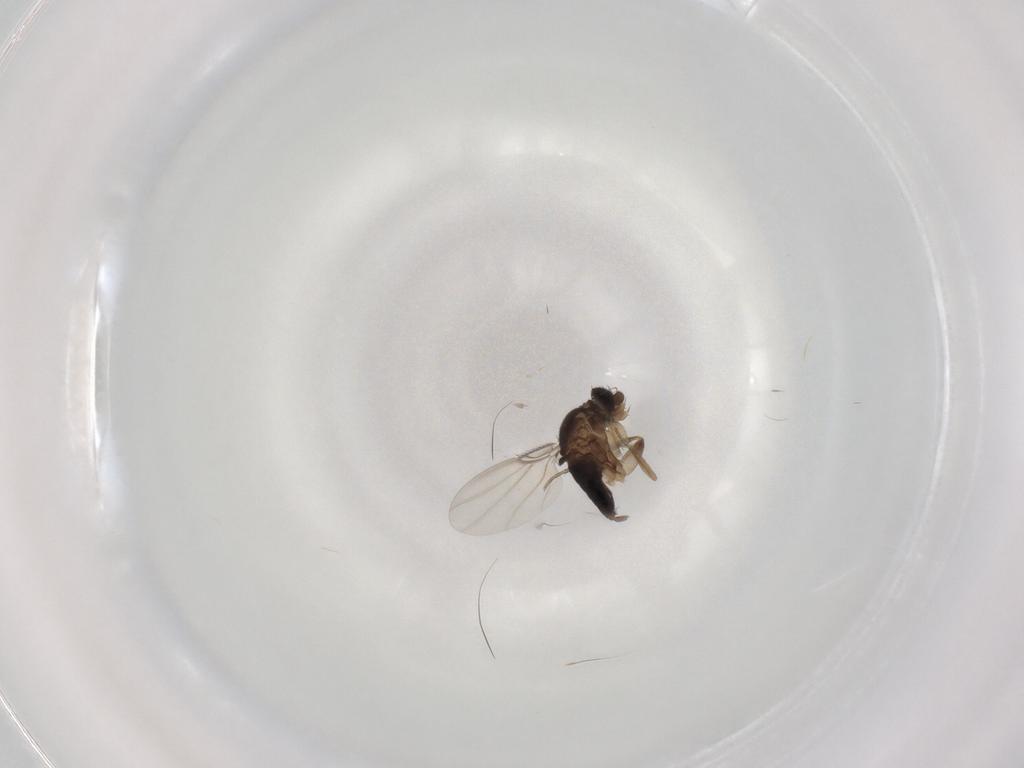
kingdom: Animalia
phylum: Arthropoda
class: Insecta
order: Diptera
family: Phoridae
